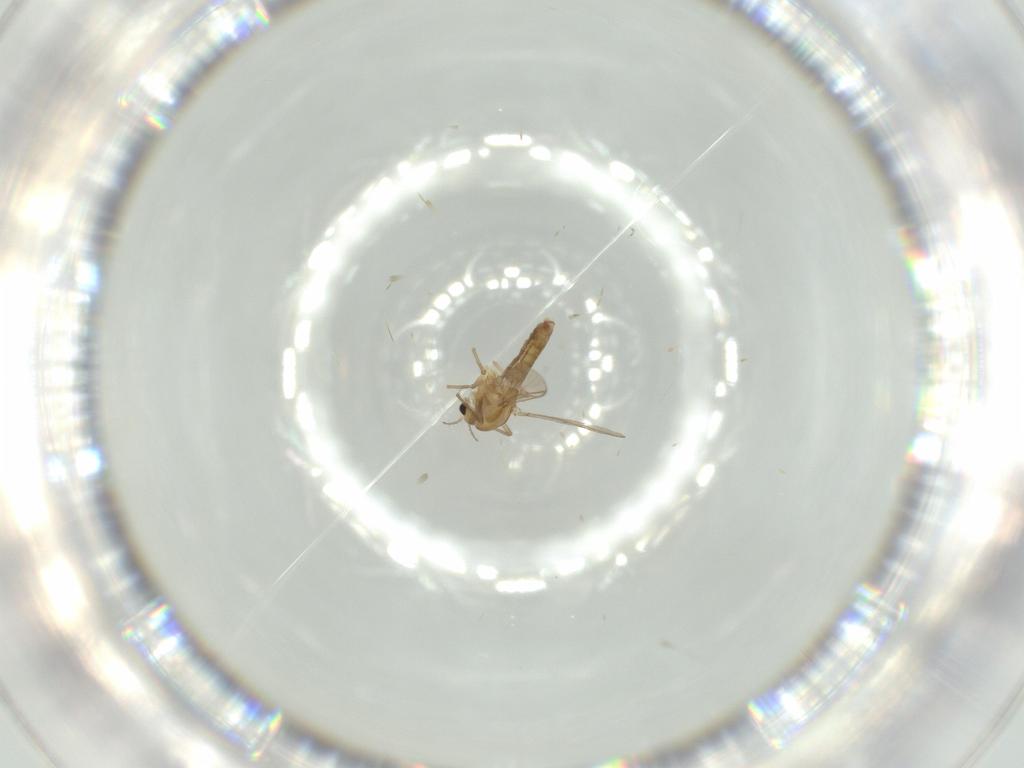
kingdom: Animalia
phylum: Arthropoda
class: Insecta
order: Diptera
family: Chironomidae
